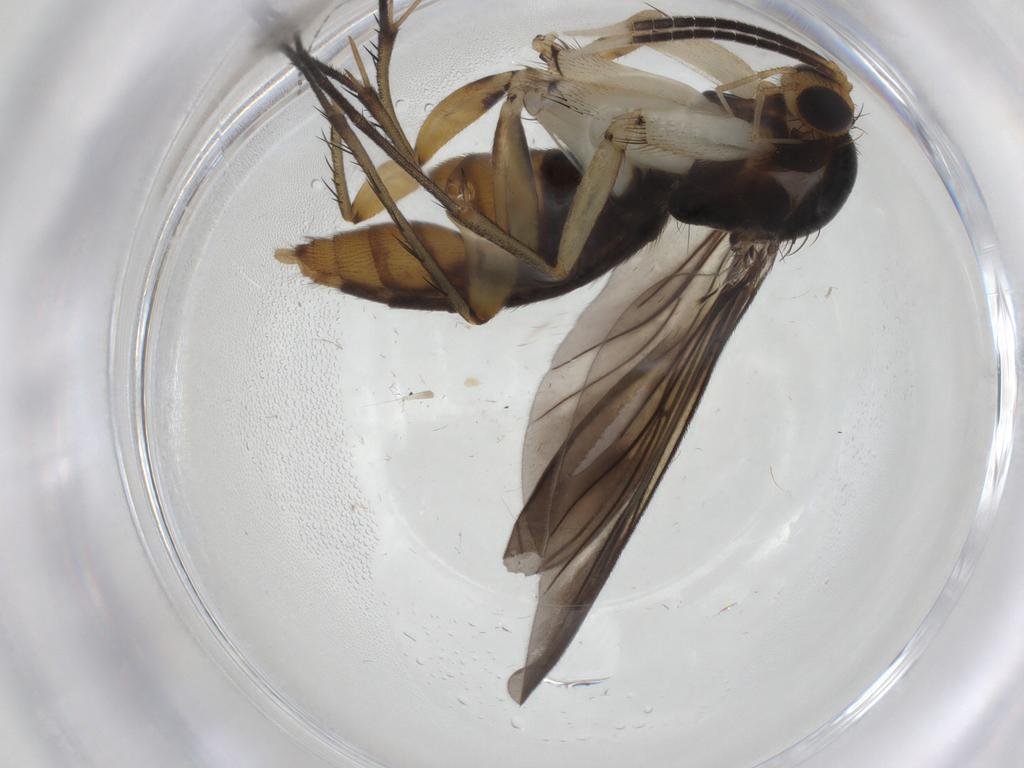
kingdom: Animalia
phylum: Arthropoda
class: Insecta
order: Diptera
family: Mycetophilidae
